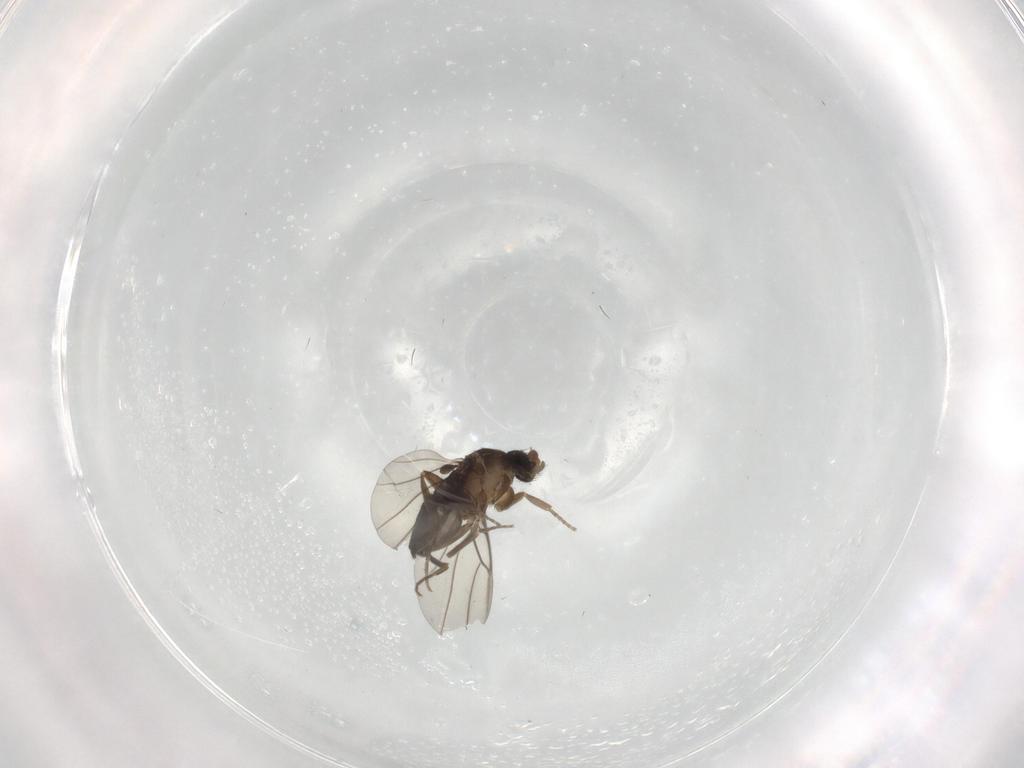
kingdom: Animalia
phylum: Arthropoda
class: Insecta
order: Diptera
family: Phoridae
